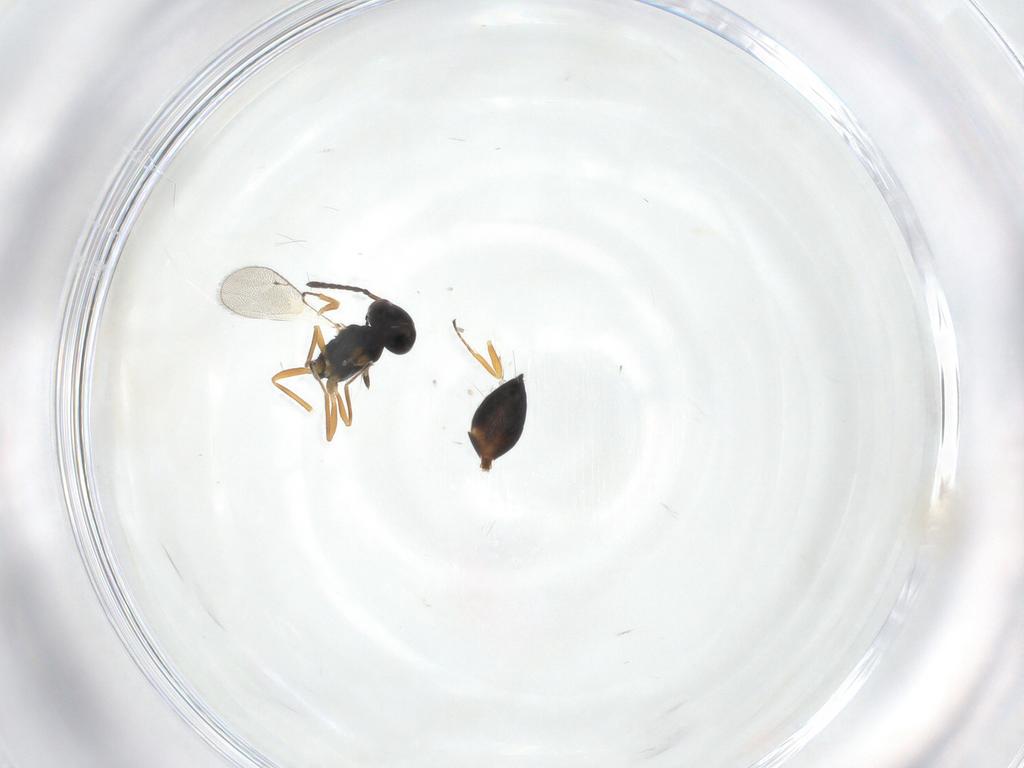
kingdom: Animalia
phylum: Arthropoda
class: Insecta
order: Hymenoptera
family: Pteromalidae
